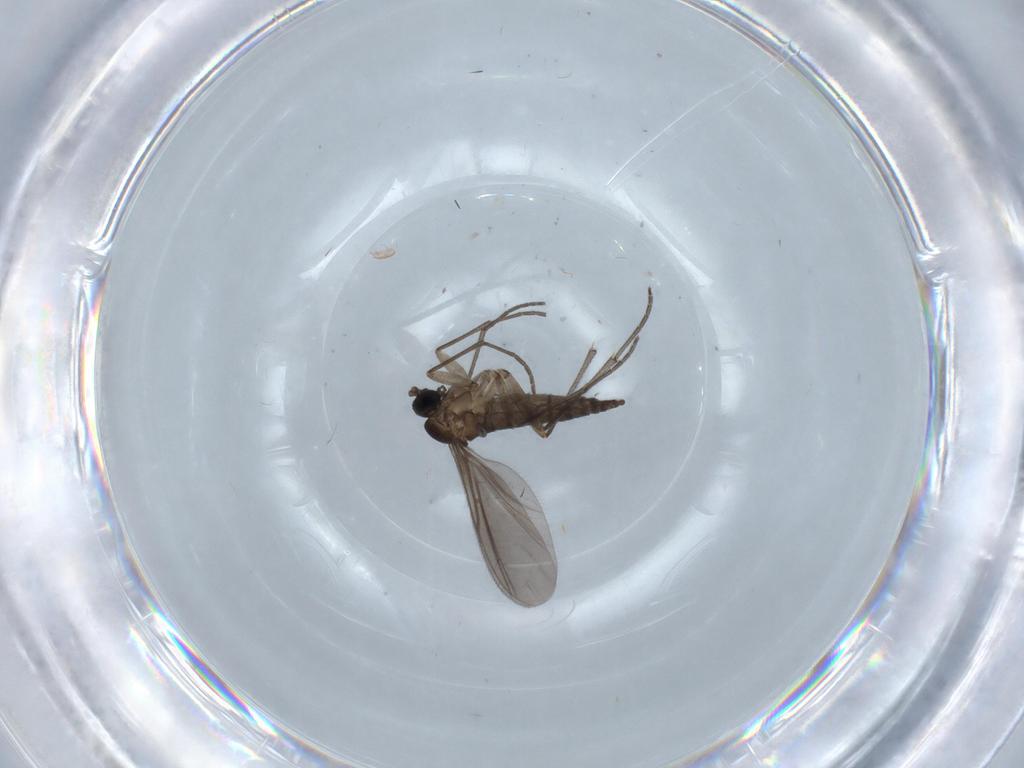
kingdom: Animalia
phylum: Arthropoda
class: Insecta
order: Diptera
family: Sciaridae
